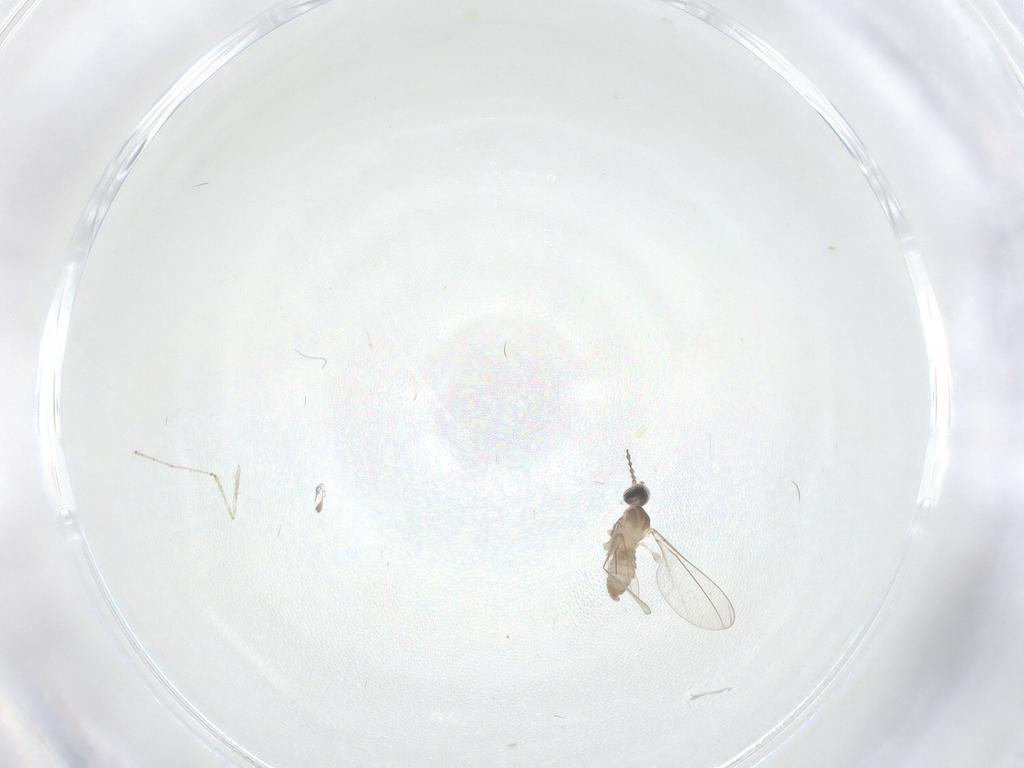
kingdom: Animalia
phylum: Arthropoda
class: Insecta
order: Diptera
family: Cecidomyiidae
